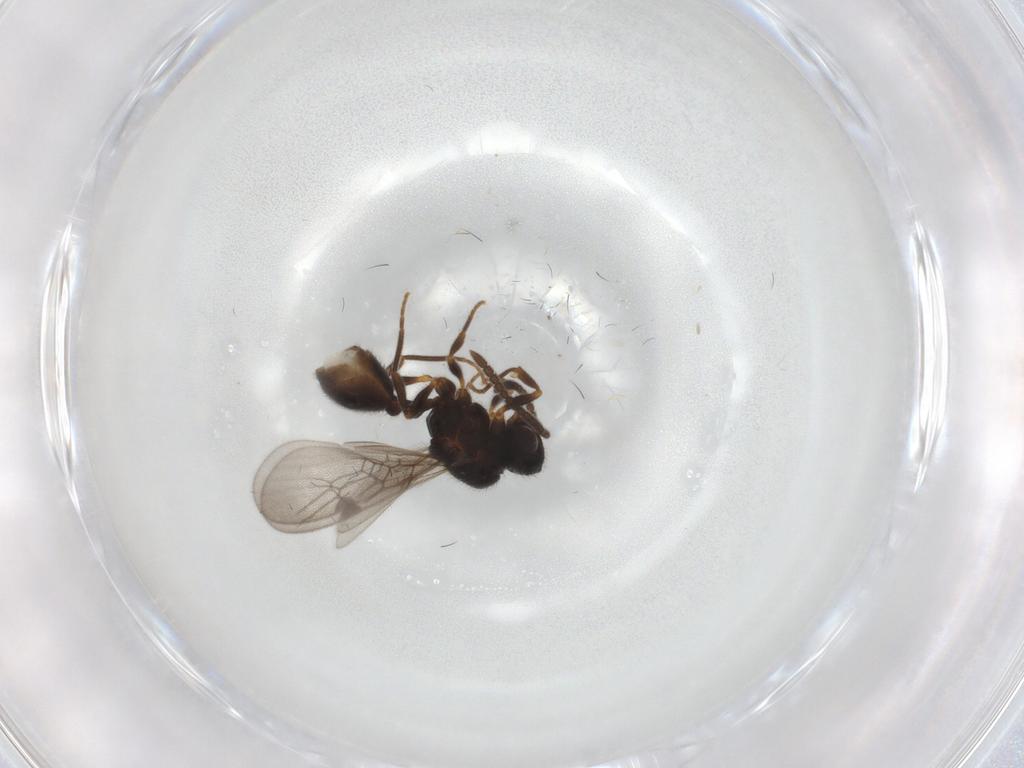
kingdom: Animalia
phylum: Arthropoda
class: Insecta
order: Hymenoptera
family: Formicidae
